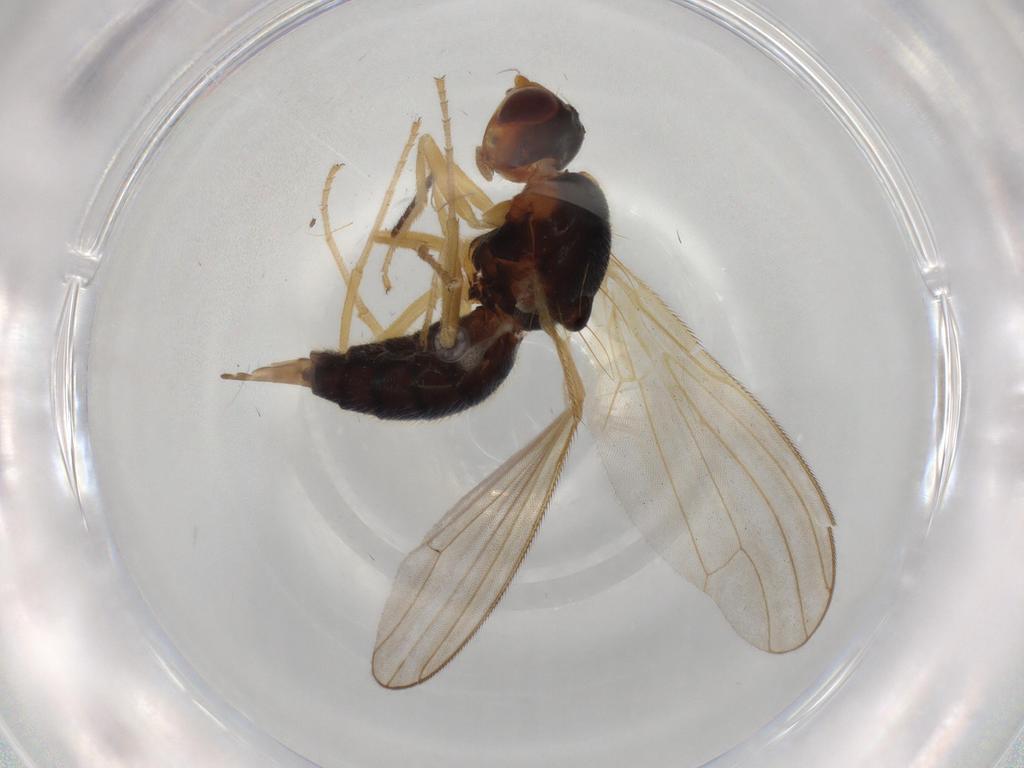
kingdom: Animalia
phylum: Arthropoda
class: Insecta
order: Diptera
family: Psilidae
